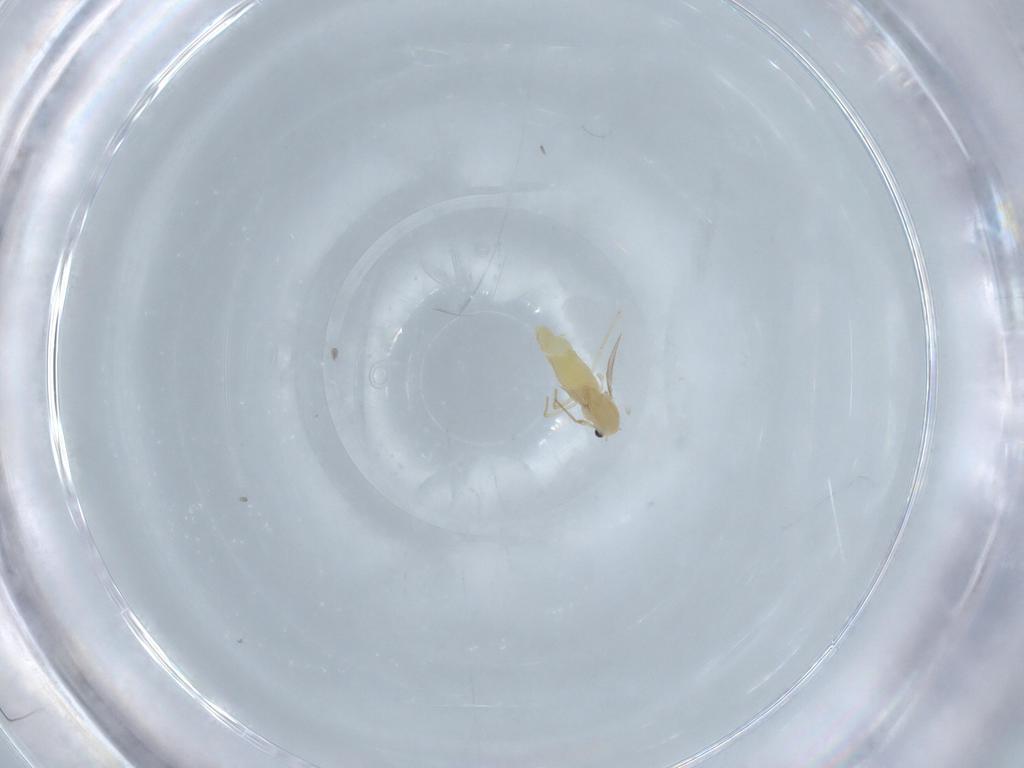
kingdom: Animalia
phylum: Arthropoda
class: Insecta
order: Diptera
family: Chironomidae
